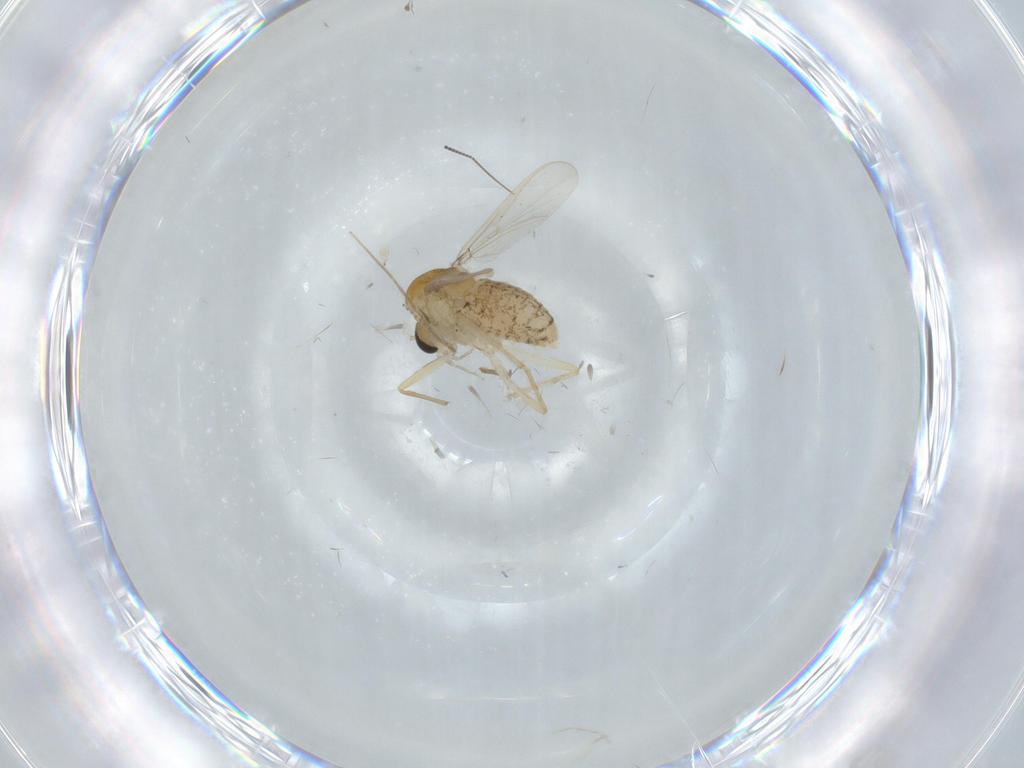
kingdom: Animalia
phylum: Arthropoda
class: Insecta
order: Diptera
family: Chironomidae
